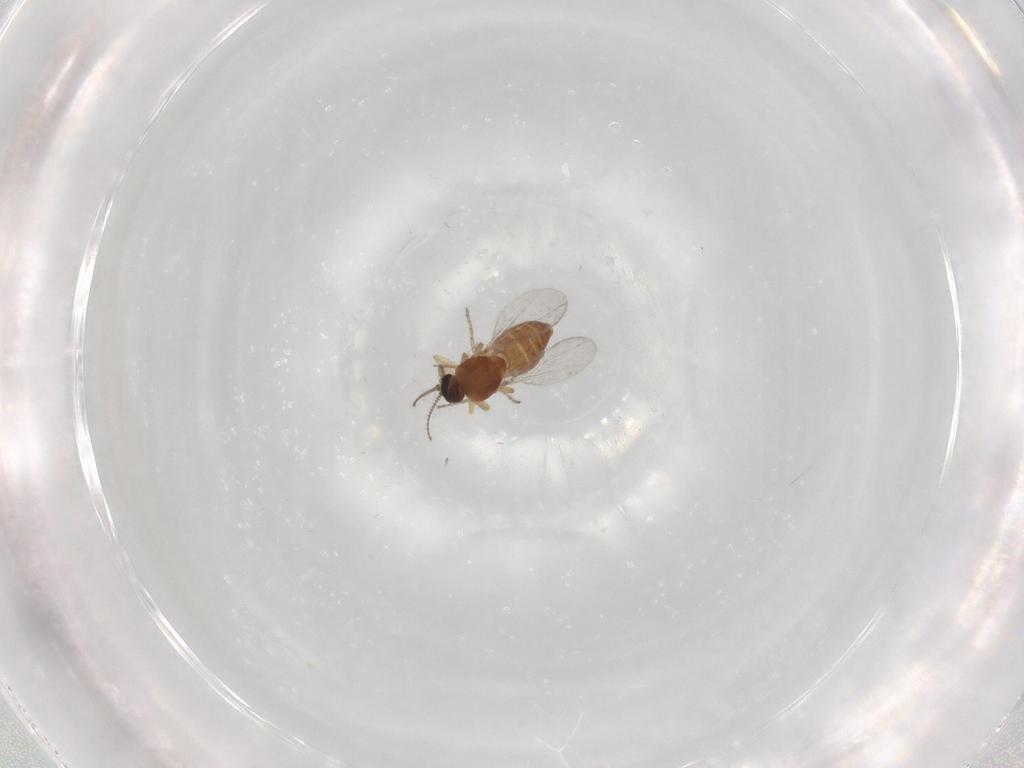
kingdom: Animalia
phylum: Arthropoda
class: Insecta
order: Diptera
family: Ceratopogonidae
